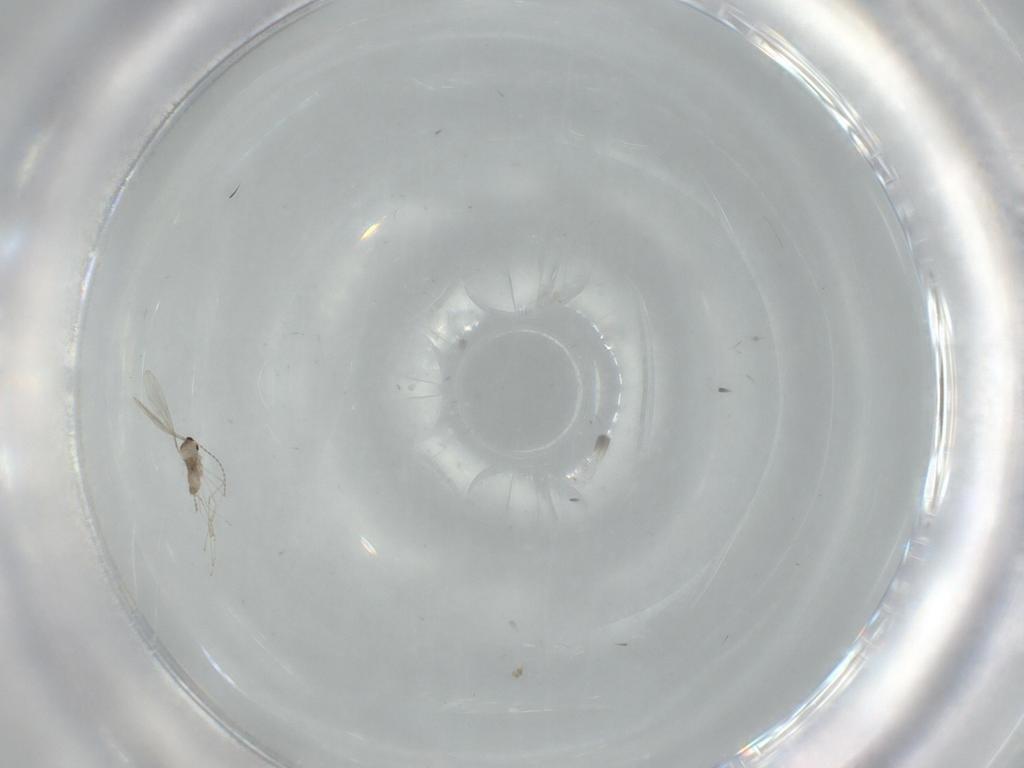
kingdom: Animalia
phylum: Arthropoda
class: Insecta
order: Diptera
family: Cecidomyiidae
